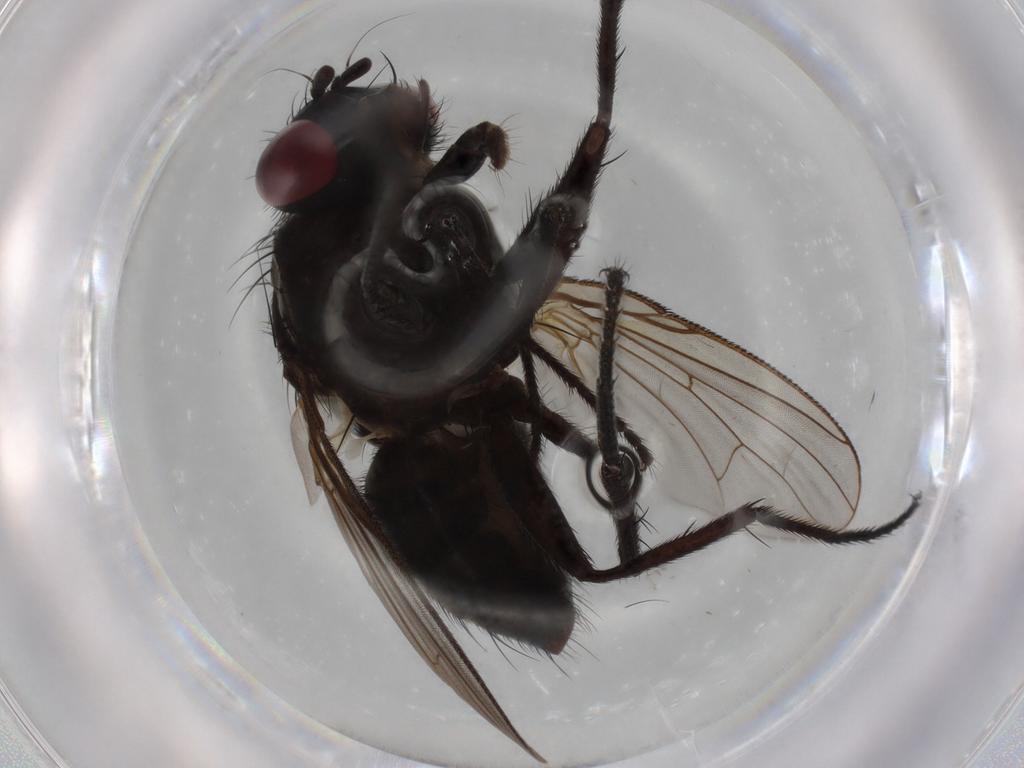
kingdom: Animalia
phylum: Arthropoda
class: Insecta
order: Diptera
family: Muscidae
